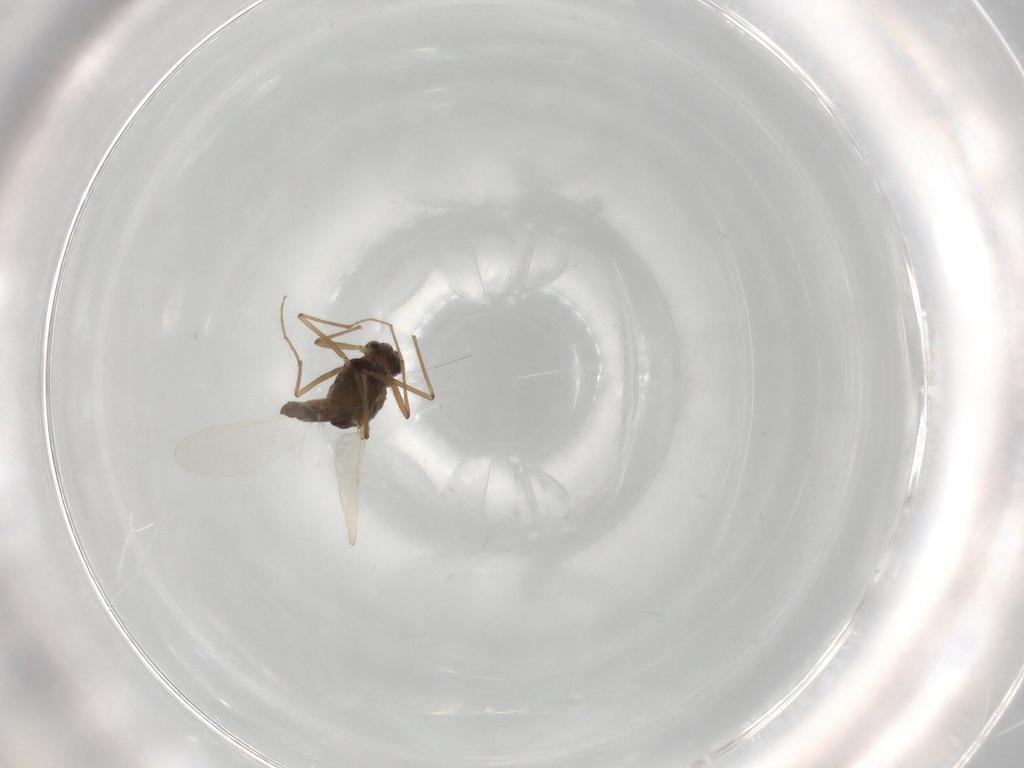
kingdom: Animalia
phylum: Arthropoda
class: Insecta
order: Diptera
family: Chironomidae
